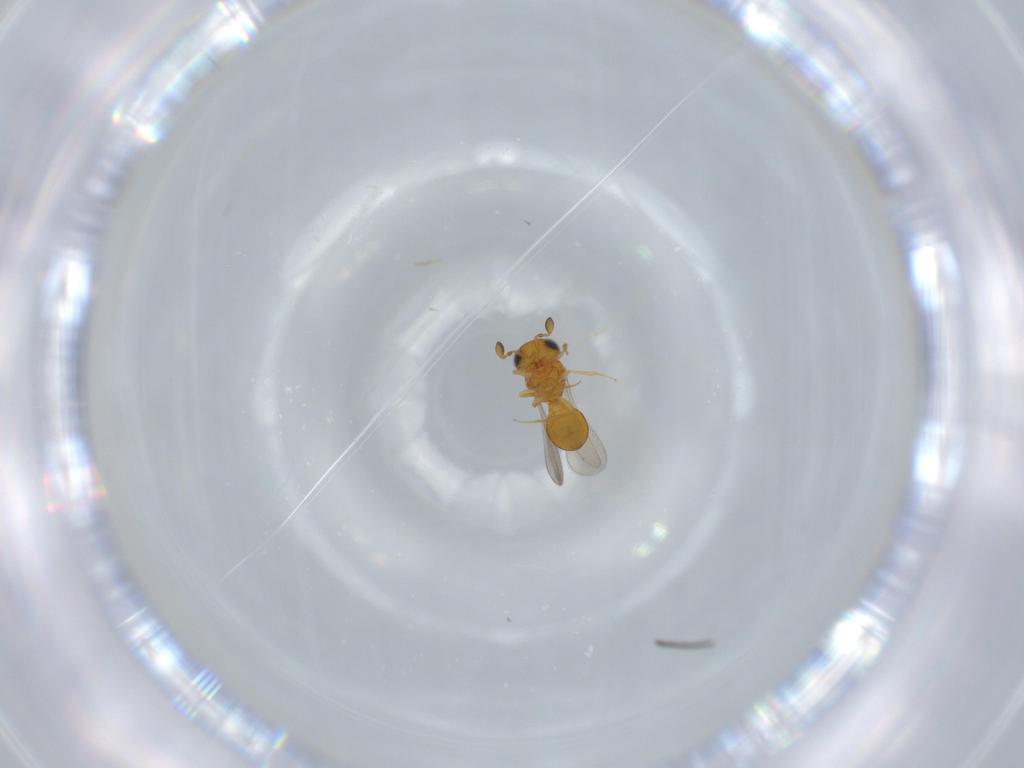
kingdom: Animalia
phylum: Arthropoda
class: Insecta
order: Hymenoptera
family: Scelionidae
